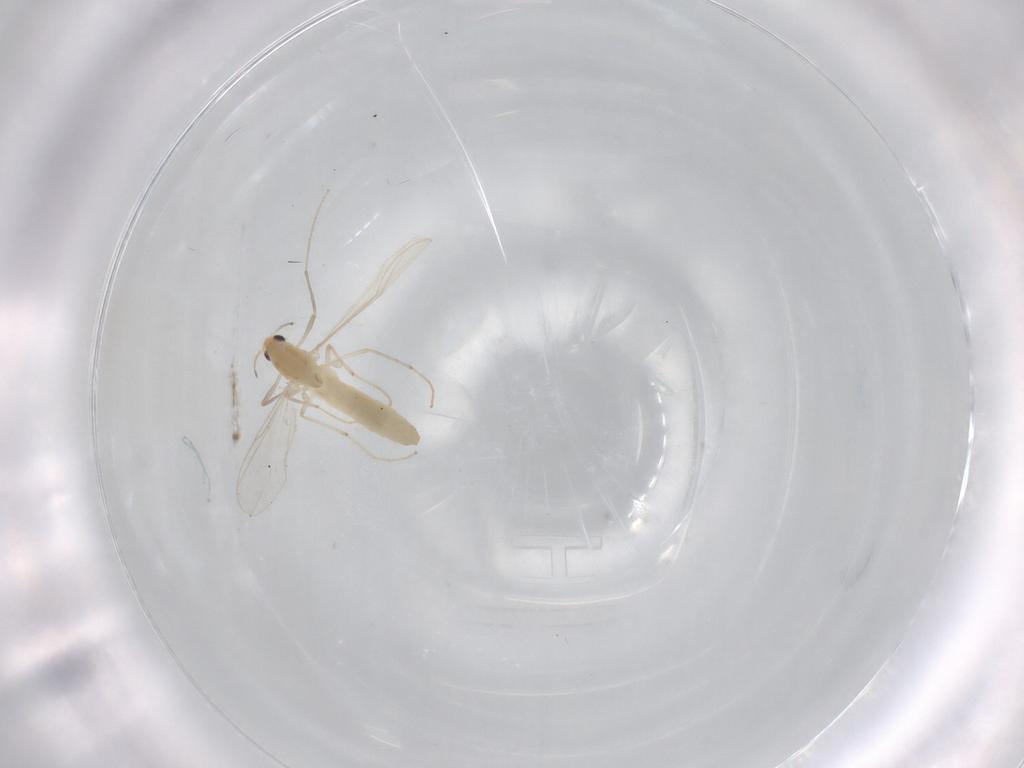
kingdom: Animalia
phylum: Arthropoda
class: Insecta
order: Diptera
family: Chironomidae
